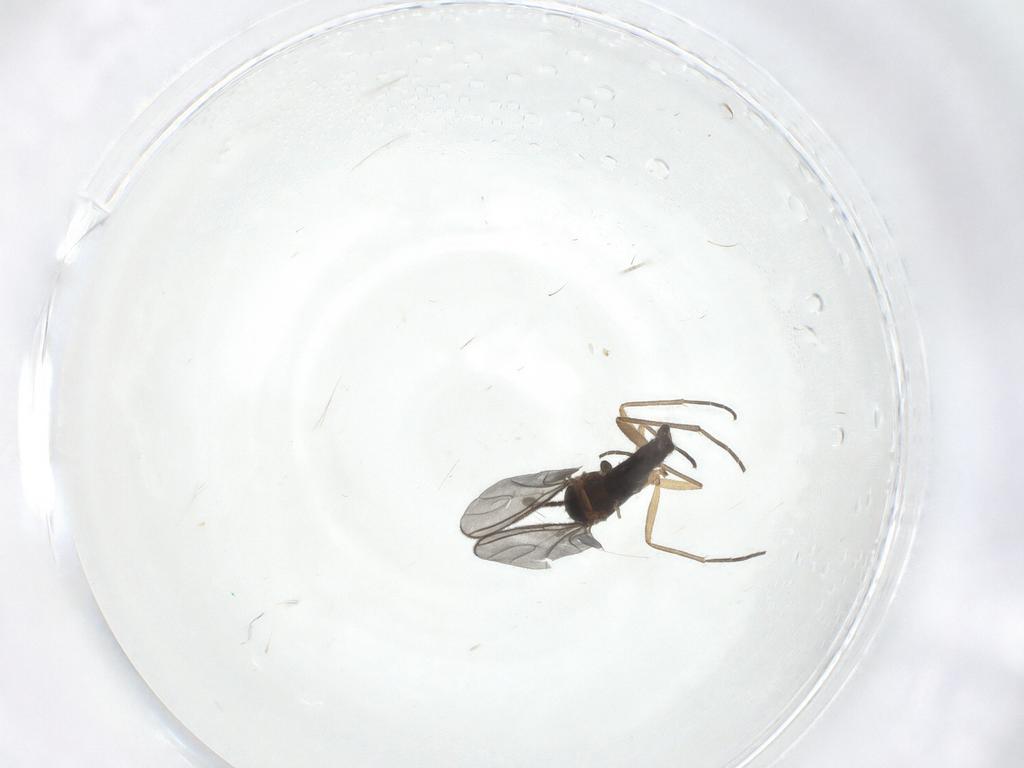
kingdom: Animalia
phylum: Arthropoda
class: Insecta
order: Diptera
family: Sciaridae
